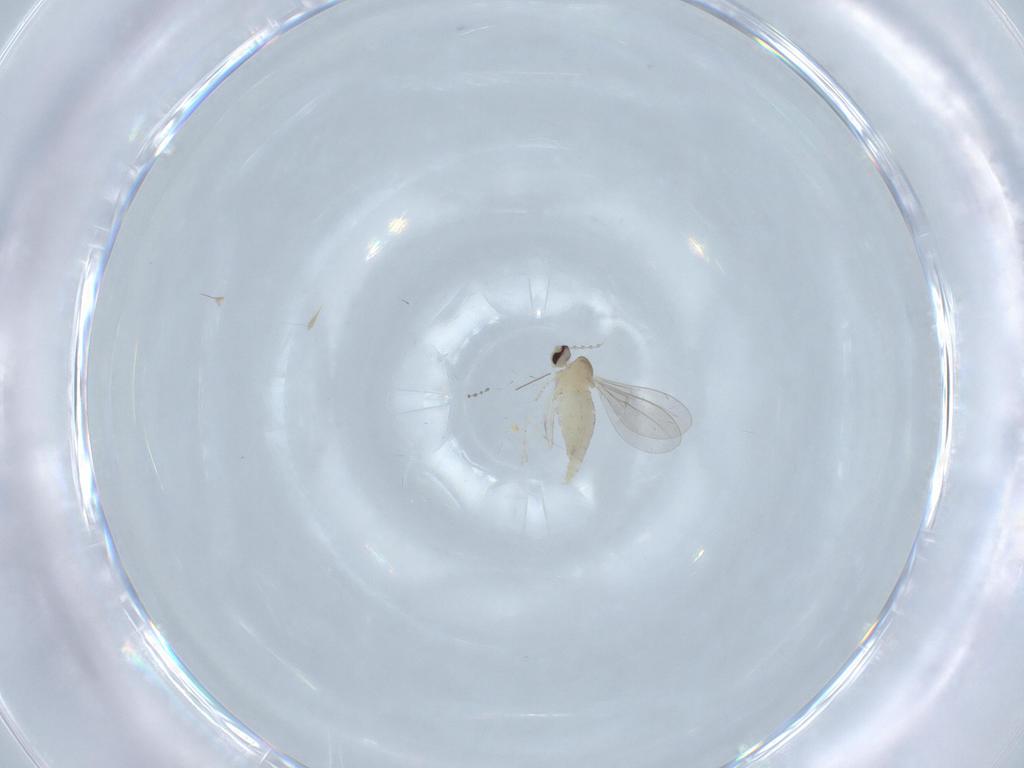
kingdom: Animalia
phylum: Arthropoda
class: Insecta
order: Diptera
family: Cecidomyiidae
